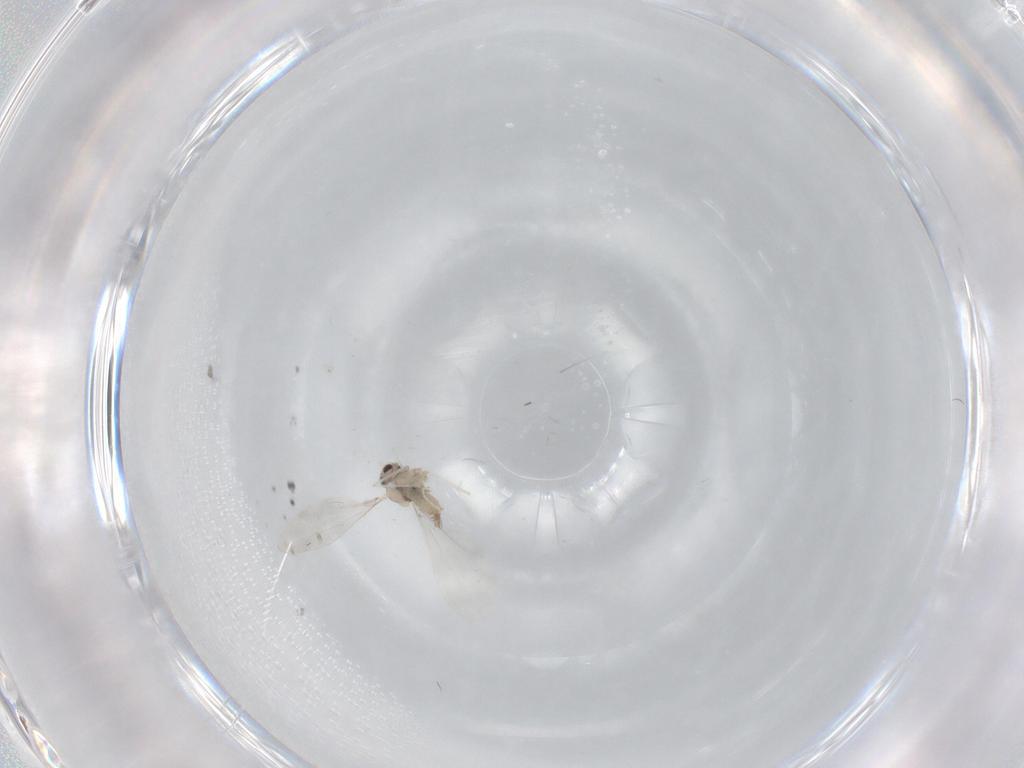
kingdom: Animalia
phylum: Arthropoda
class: Insecta
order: Diptera
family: Cecidomyiidae
